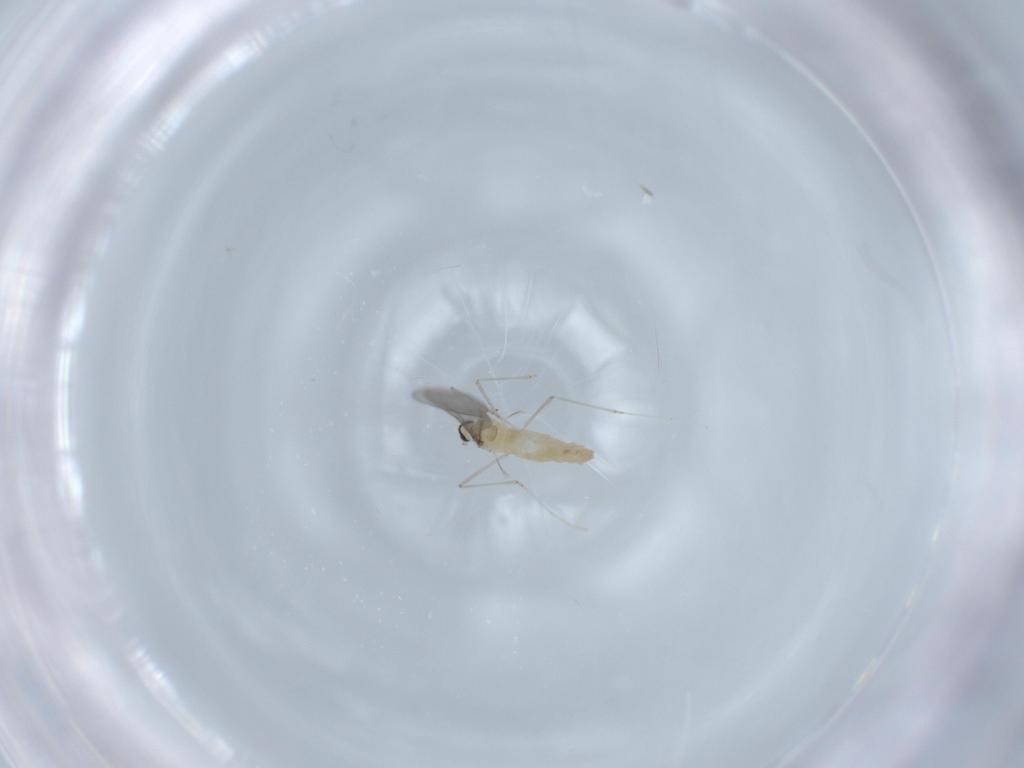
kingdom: Animalia
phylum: Arthropoda
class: Insecta
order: Diptera
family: Cecidomyiidae
